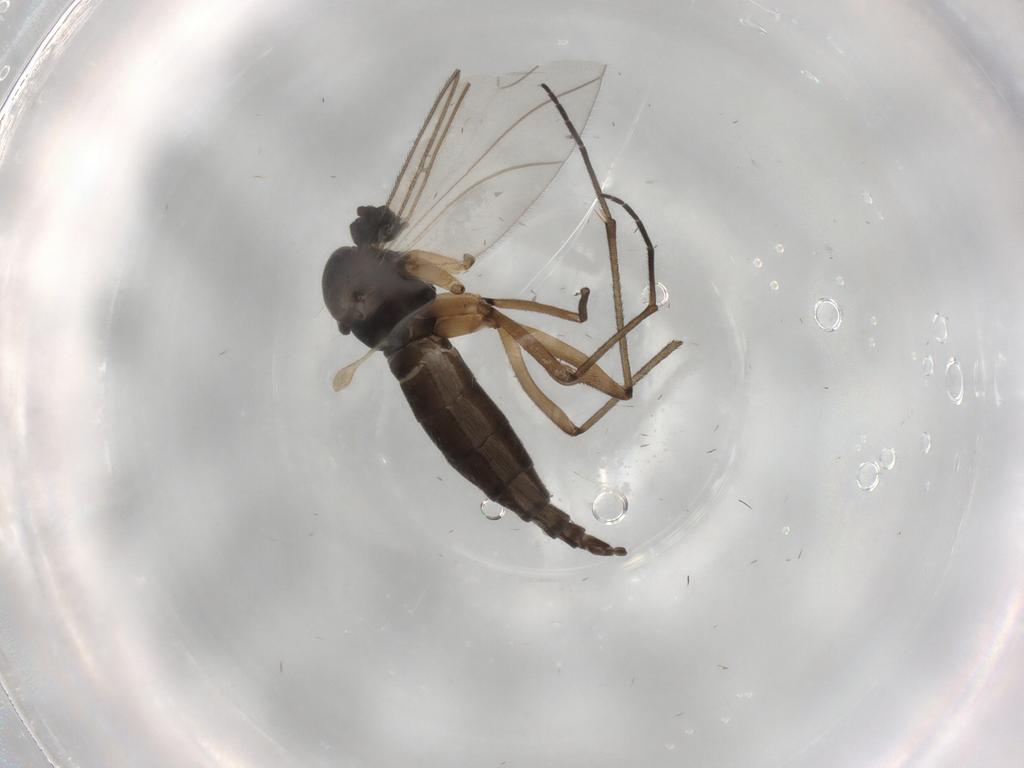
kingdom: Animalia
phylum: Arthropoda
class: Insecta
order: Diptera
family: Sciaridae
